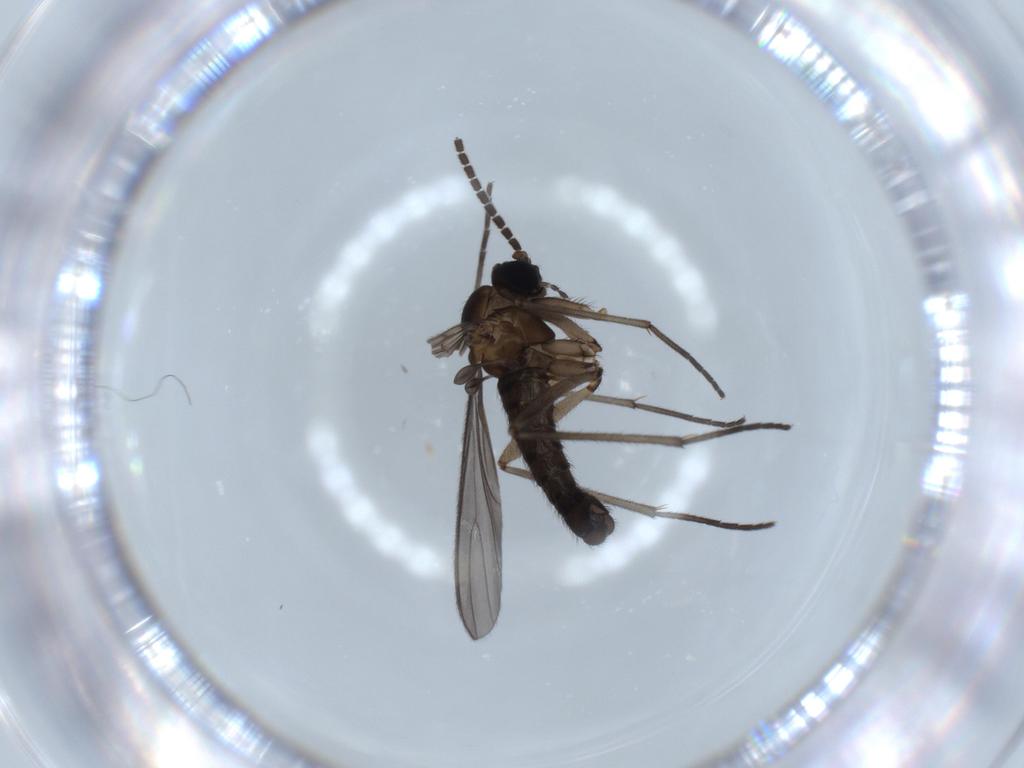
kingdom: Animalia
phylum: Arthropoda
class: Insecta
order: Diptera
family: Sciaridae
